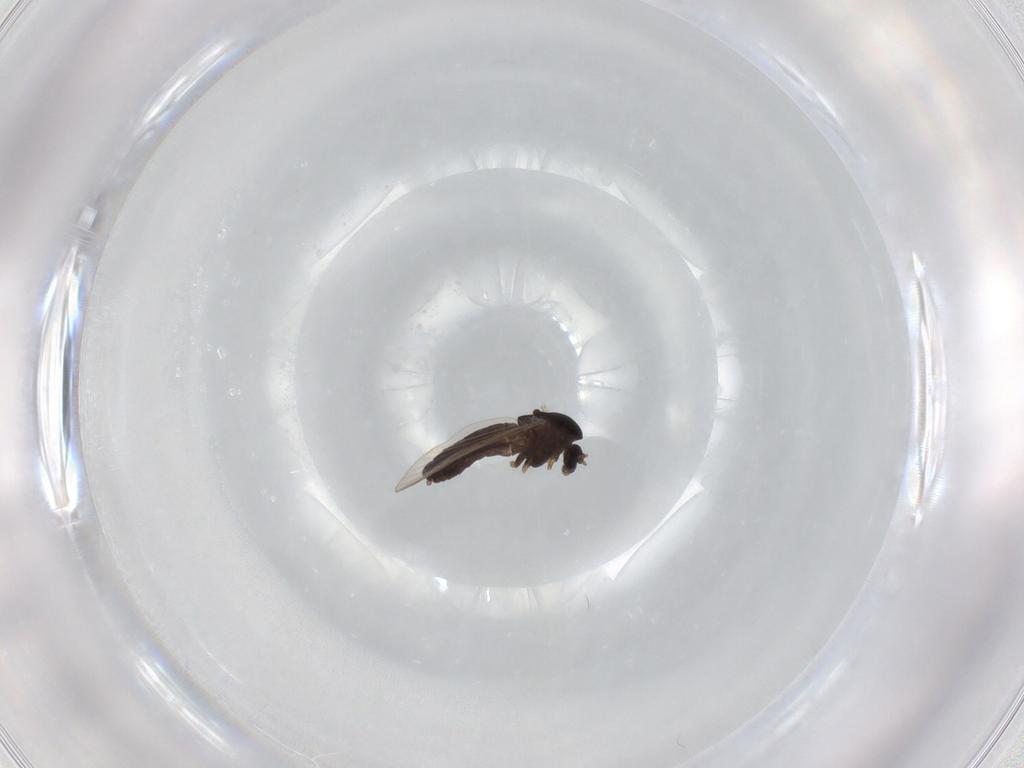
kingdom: Animalia
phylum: Arthropoda
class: Insecta
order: Diptera
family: Chironomidae
